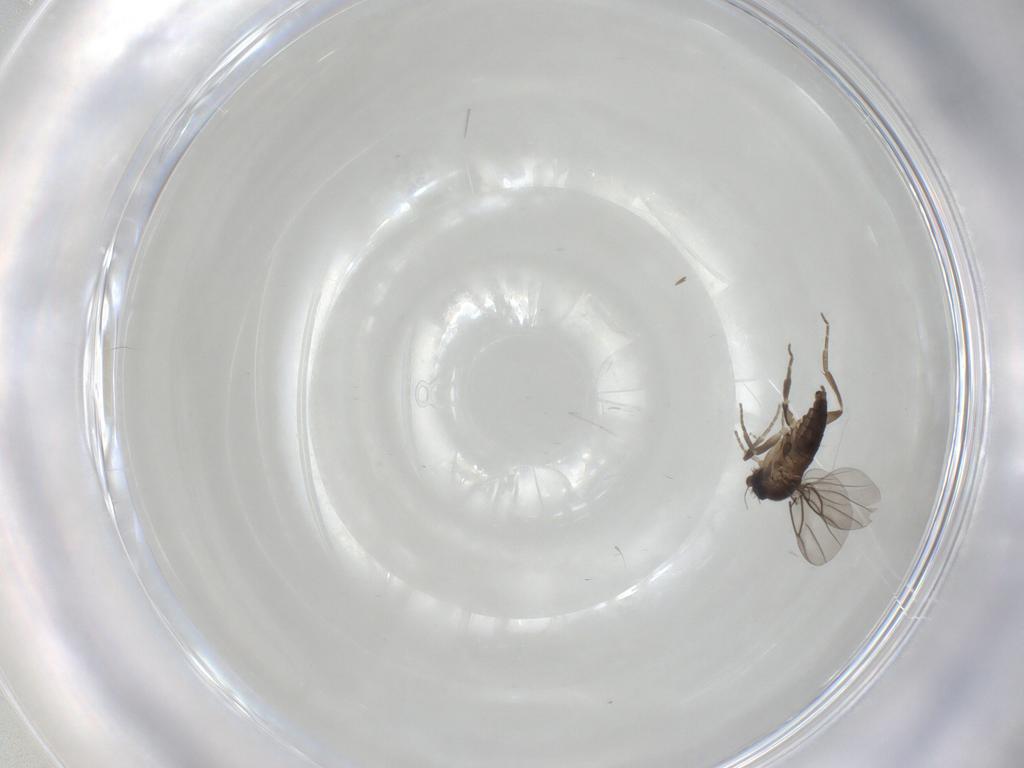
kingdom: Animalia
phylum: Arthropoda
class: Insecta
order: Diptera
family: Cecidomyiidae
